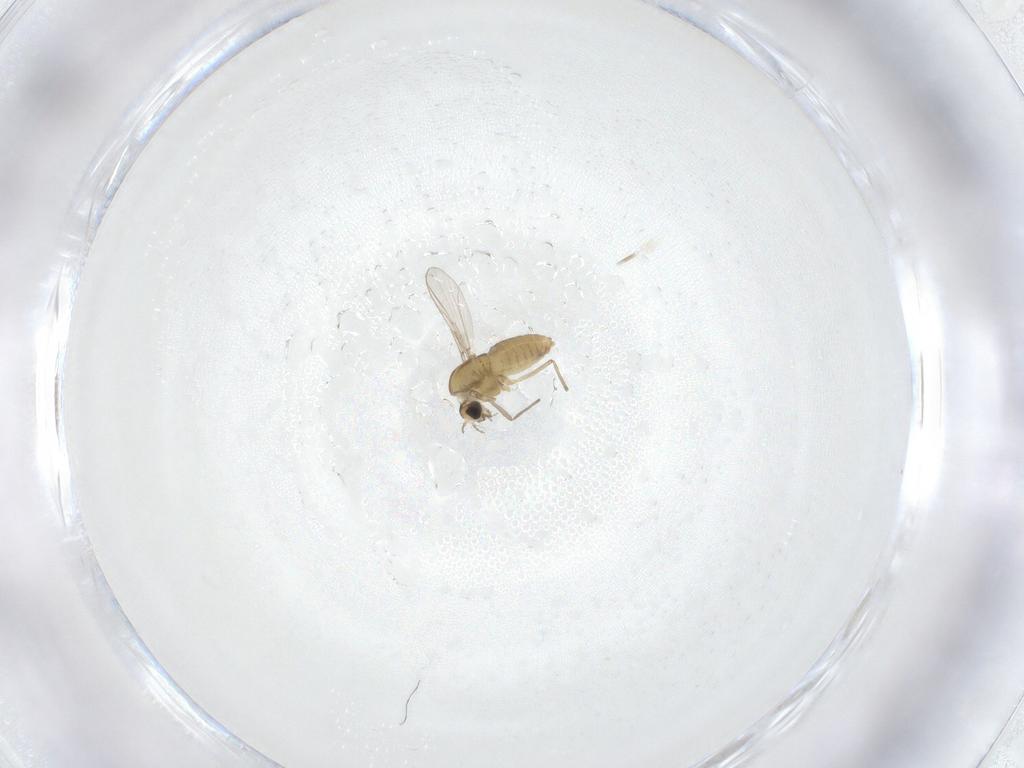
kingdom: Animalia
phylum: Arthropoda
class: Insecta
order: Diptera
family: Chironomidae
